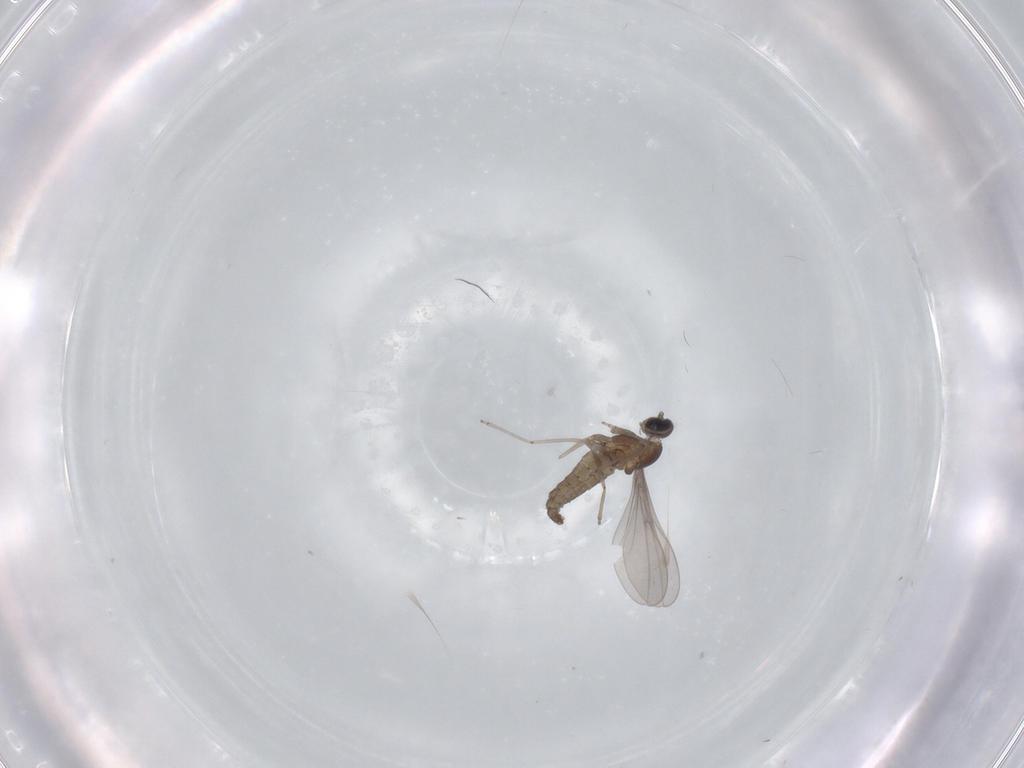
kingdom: Animalia
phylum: Arthropoda
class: Insecta
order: Diptera
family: Cecidomyiidae
